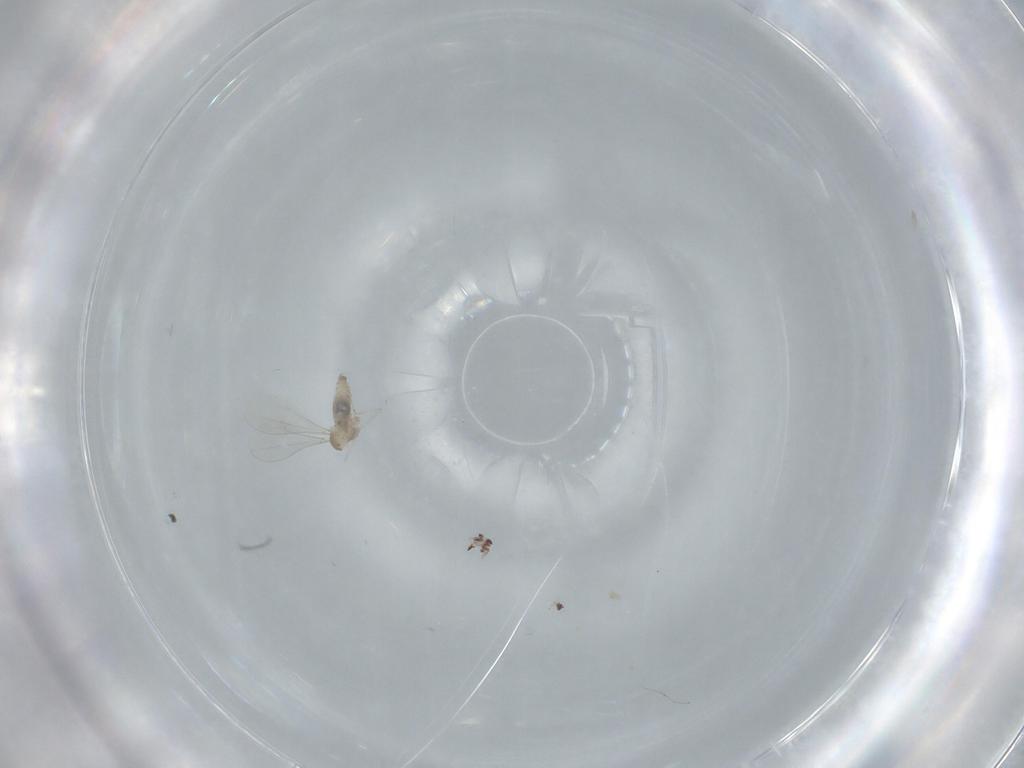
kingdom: Animalia
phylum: Arthropoda
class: Insecta
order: Diptera
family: Cecidomyiidae
